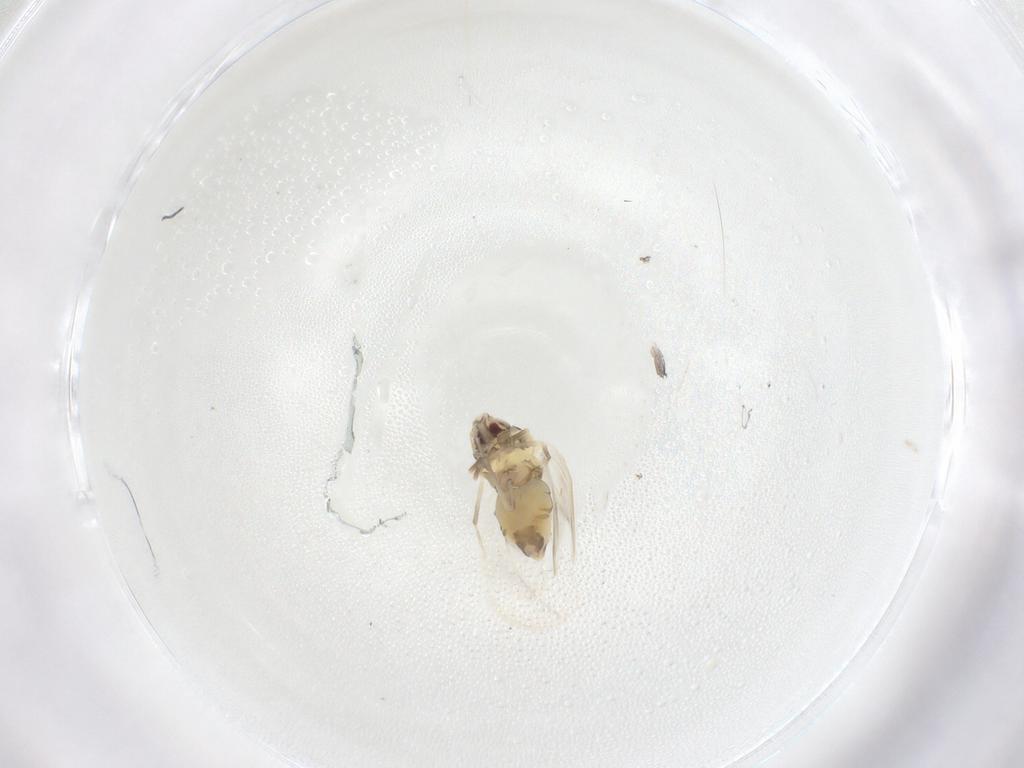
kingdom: Animalia
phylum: Arthropoda
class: Insecta
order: Hemiptera
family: Aleyrodidae
